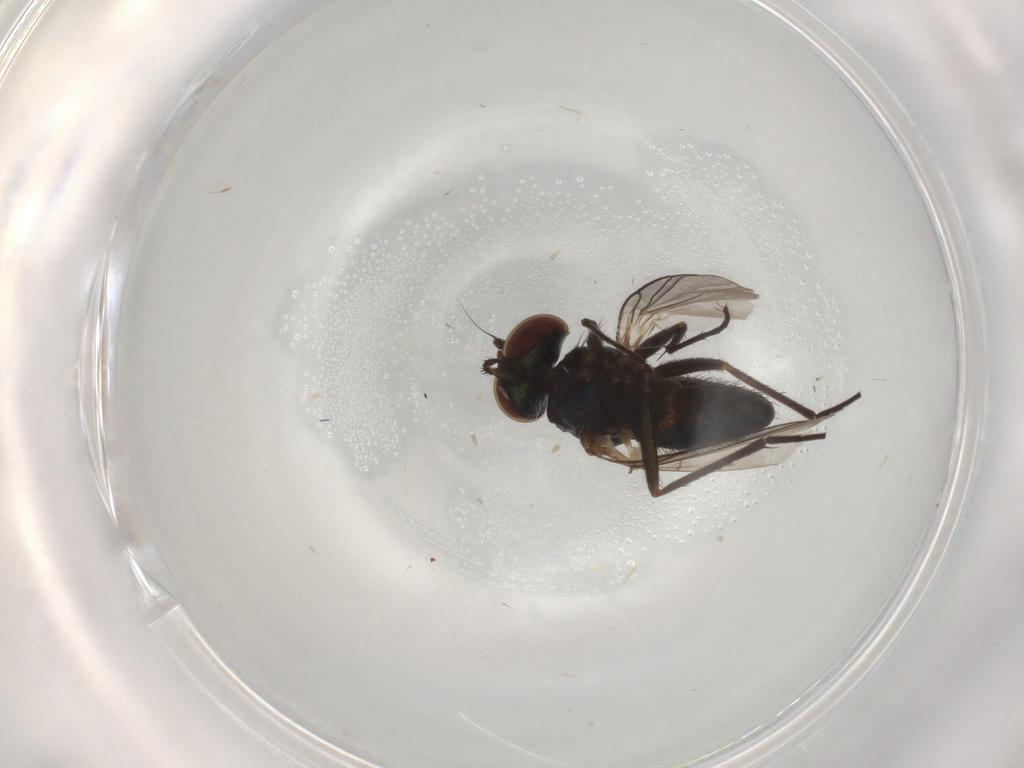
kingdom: Animalia
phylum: Arthropoda
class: Insecta
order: Diptera
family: Dolichopodidae
